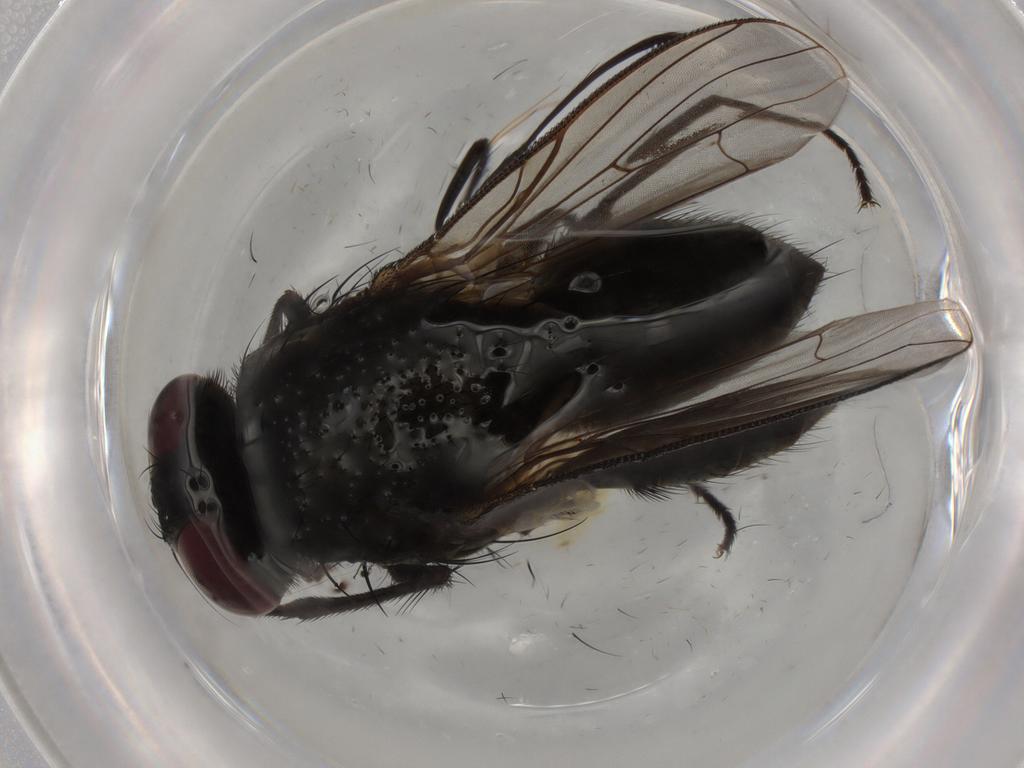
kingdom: Animalia
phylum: Arthropoda
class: Insecta
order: Diptera
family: Muscidae
